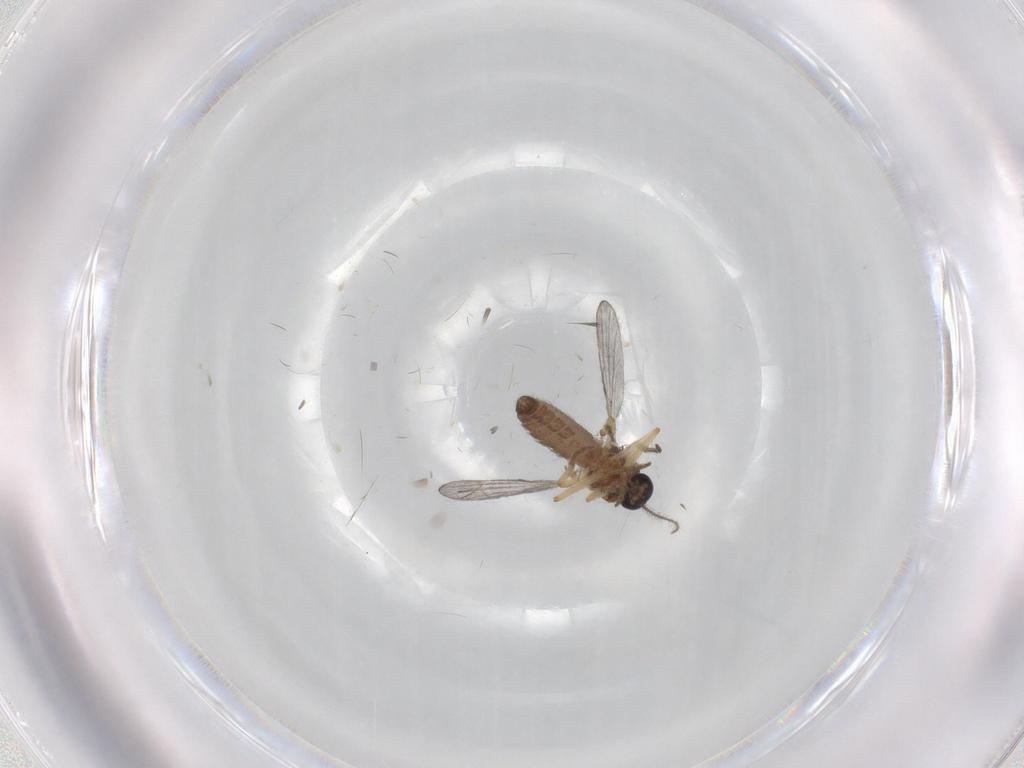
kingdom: Animalia
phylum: Arthropoda
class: Insecta
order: Diptera
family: Ceratopogonidae
